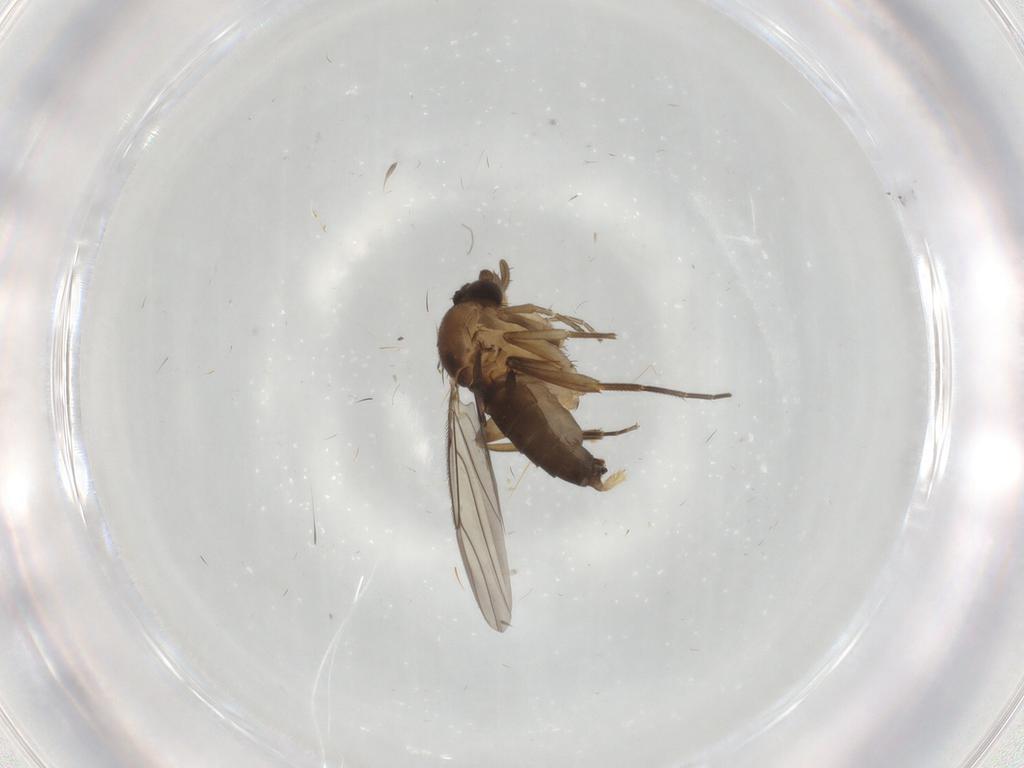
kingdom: Animalia
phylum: Arthropoda
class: Insecta
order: Diptera
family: Phoridae
